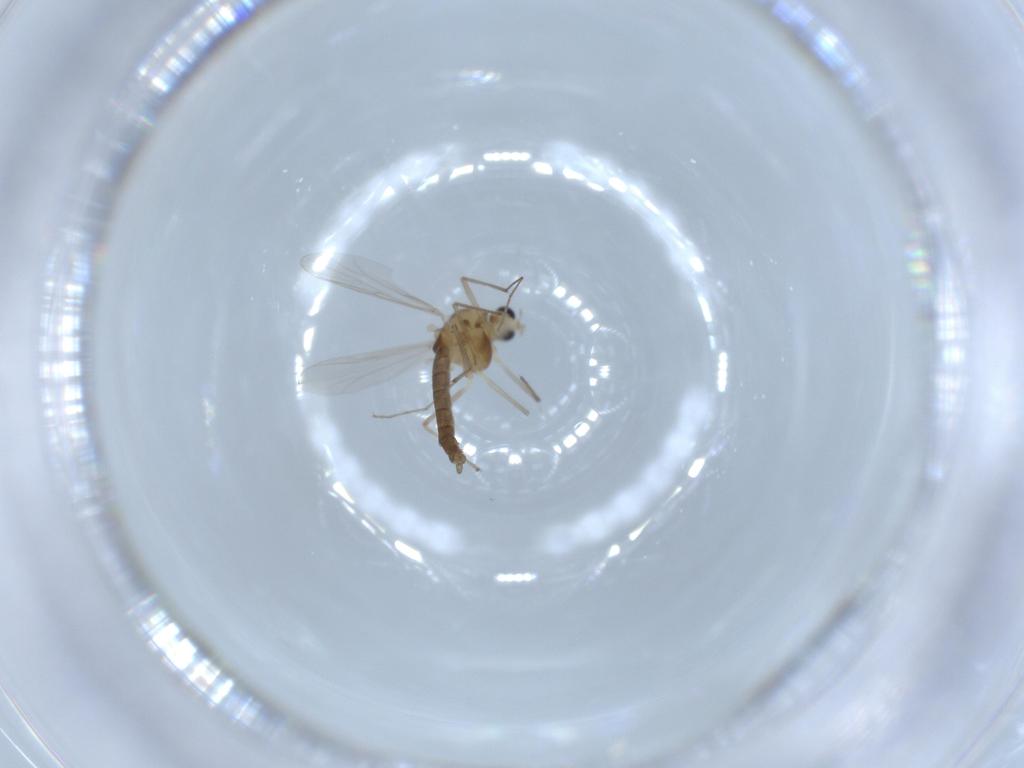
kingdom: Animalia
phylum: Arthropoda
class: Insecta
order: Diptera
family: Chironomidae
